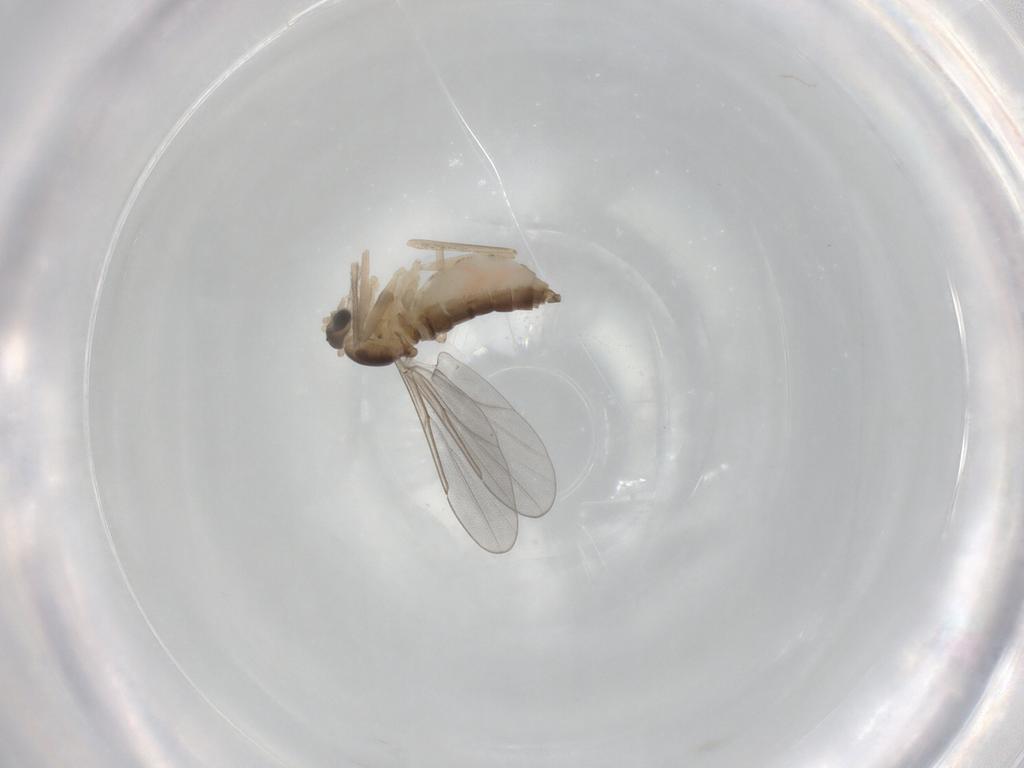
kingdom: Animalia
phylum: Arthropoda
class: Insecta
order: Diptera
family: Cecidomyiidae
